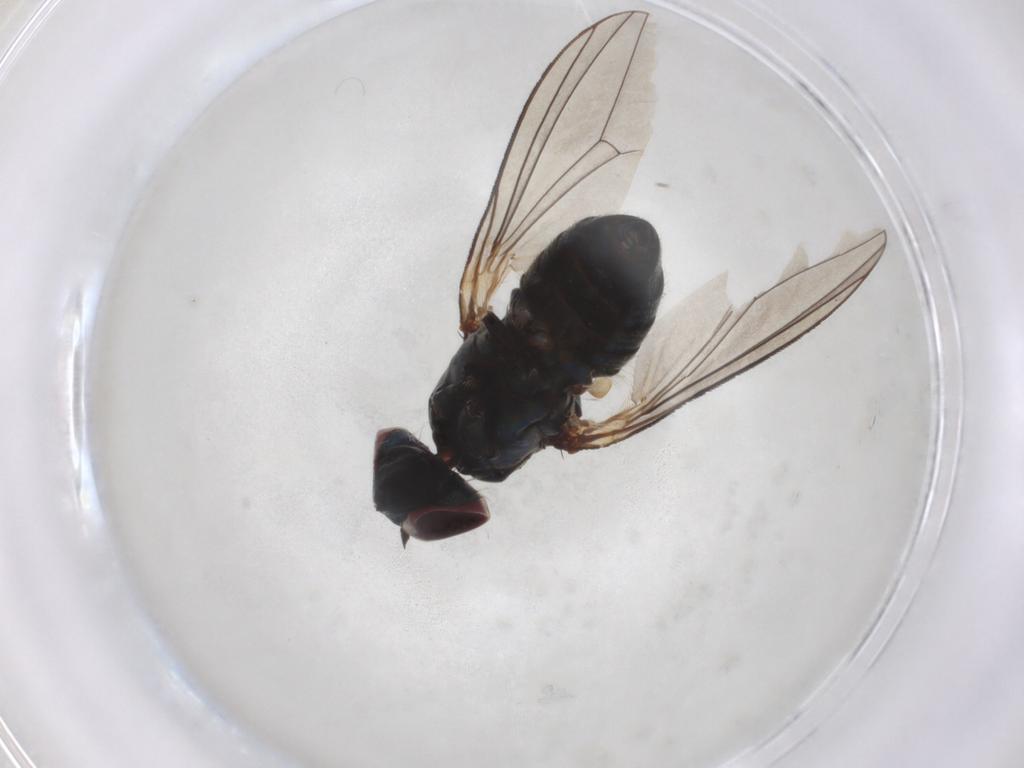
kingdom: Animalia
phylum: Arthropoda
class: Insecta
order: Diptera
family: Dolichopodidae
